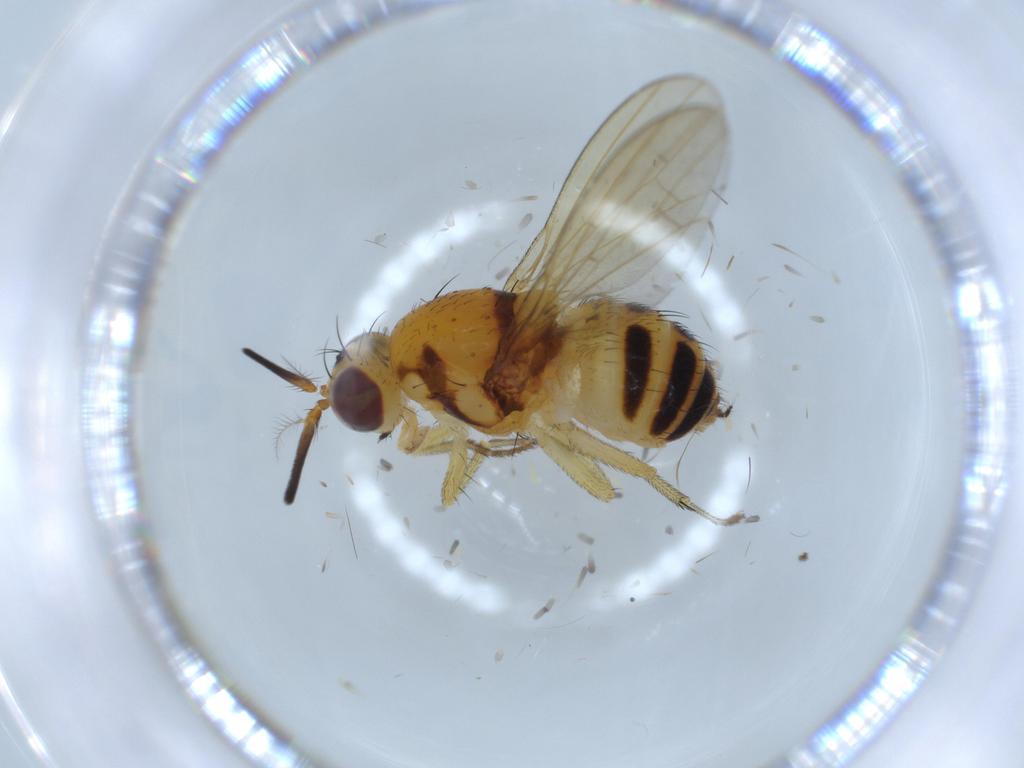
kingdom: Animalia
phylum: Arthropoda
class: Insecta
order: Diptera
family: Lauxaniidae
